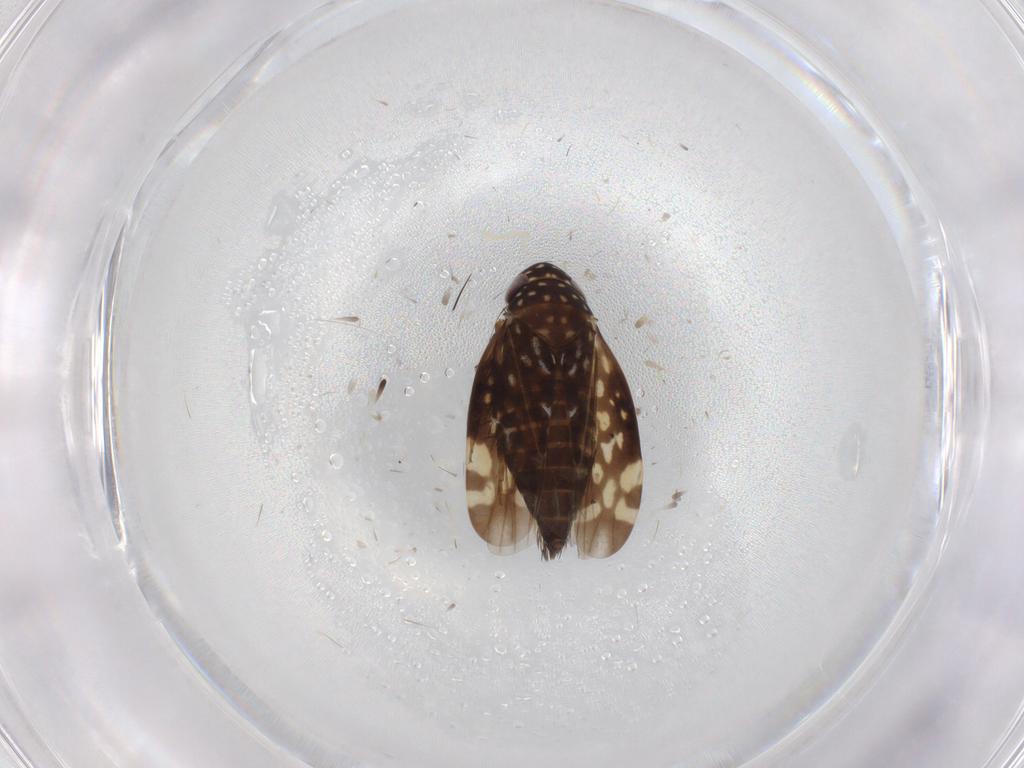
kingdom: Animalia
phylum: Arthropoda
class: Insecta
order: Hemiptera
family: Cicadellidae
